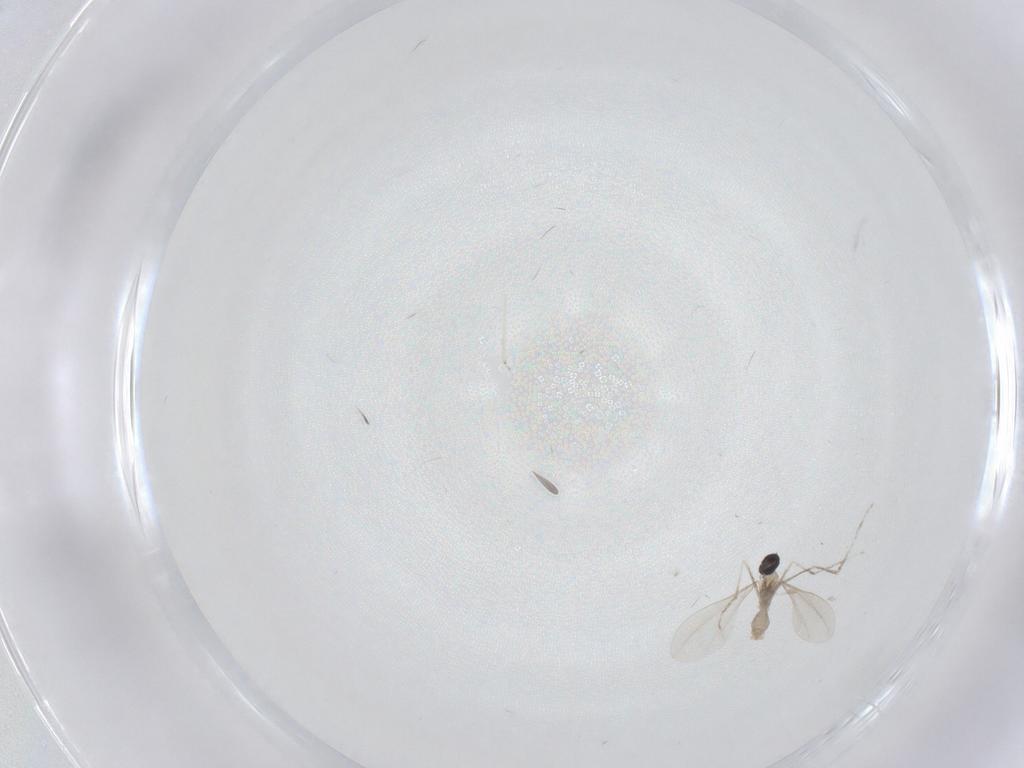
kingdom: Animalia
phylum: Arthropoda
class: Insecta
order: Diptera
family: Cecidomyiidae
